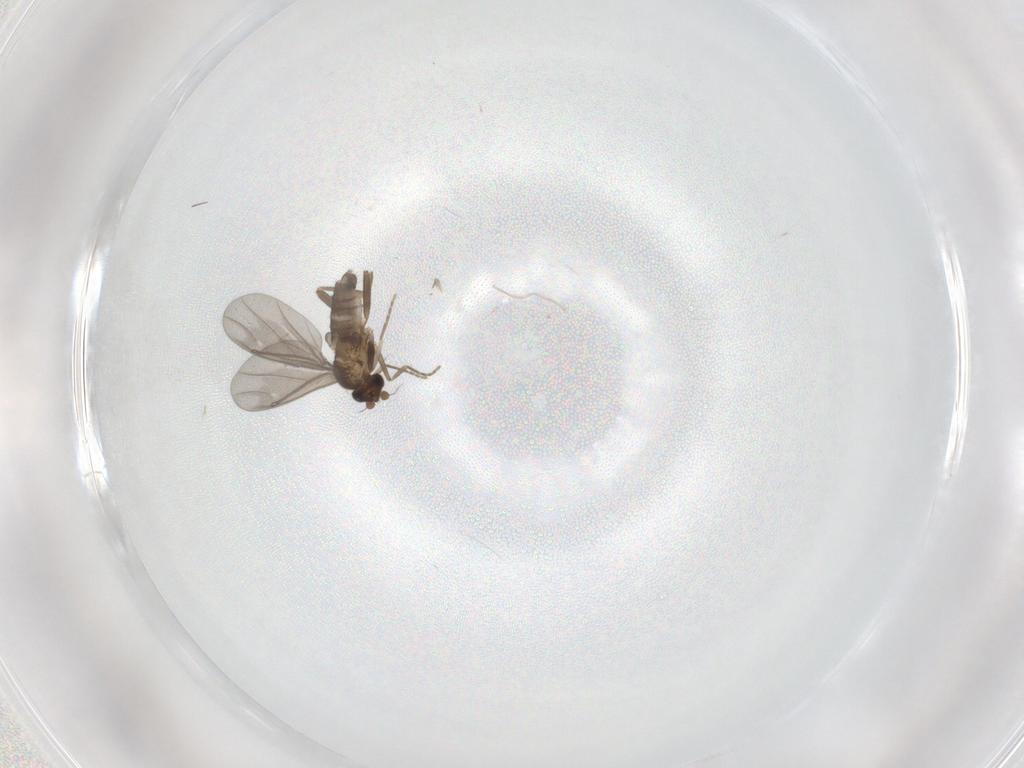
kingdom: Animalia
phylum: Arthropoda
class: Insecta
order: Diptera
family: Phoridae
